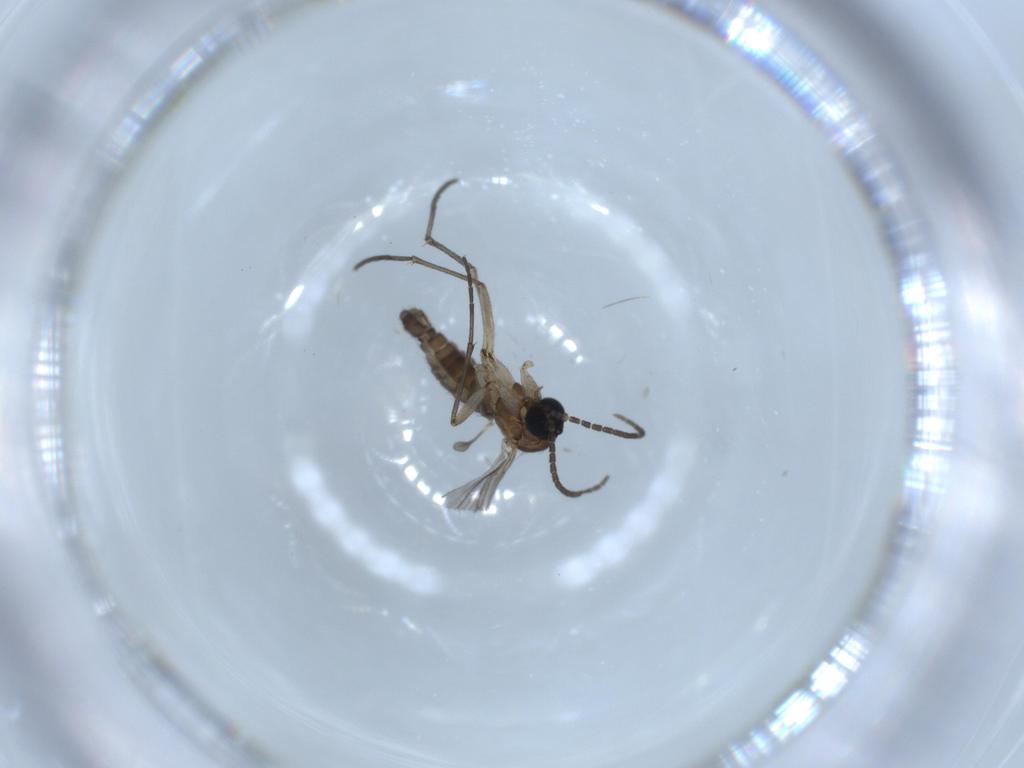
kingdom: Animalia
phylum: Arthropoda
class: Insecta
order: Diptera
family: Sciaridae
